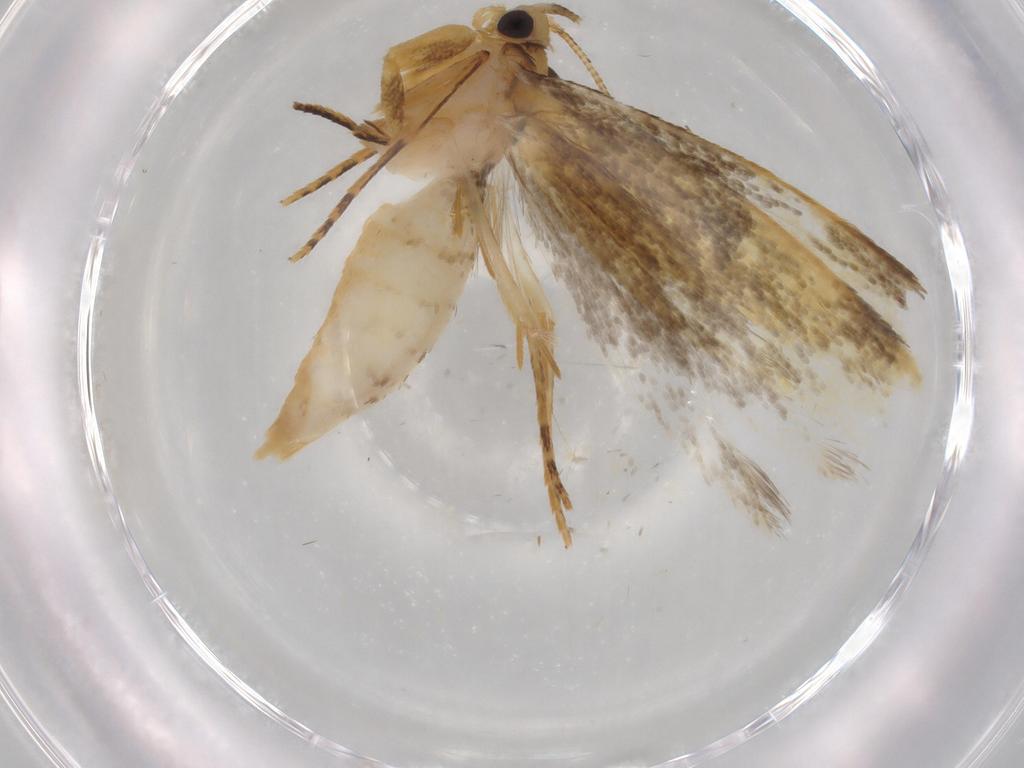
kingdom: Animalia
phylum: Arthropoda
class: Insecta
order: Lepidoptera
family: Tineidae
